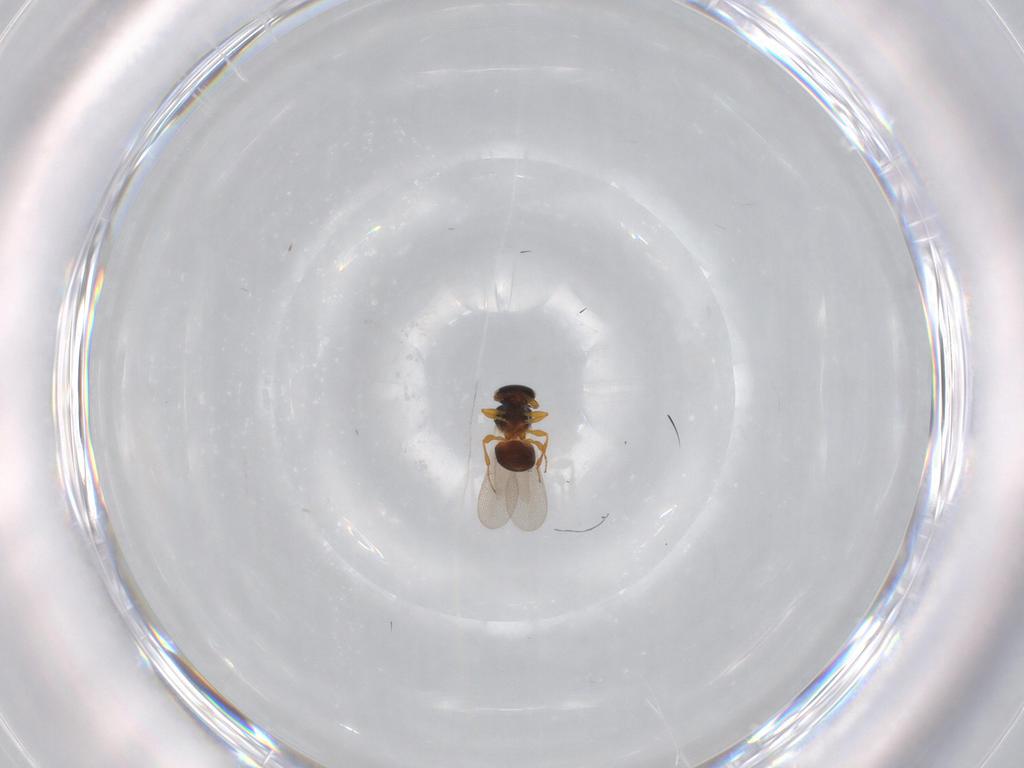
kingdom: Animalia
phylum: Arthropoda
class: Insecta
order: Hymenoptera
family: Platygastridae
